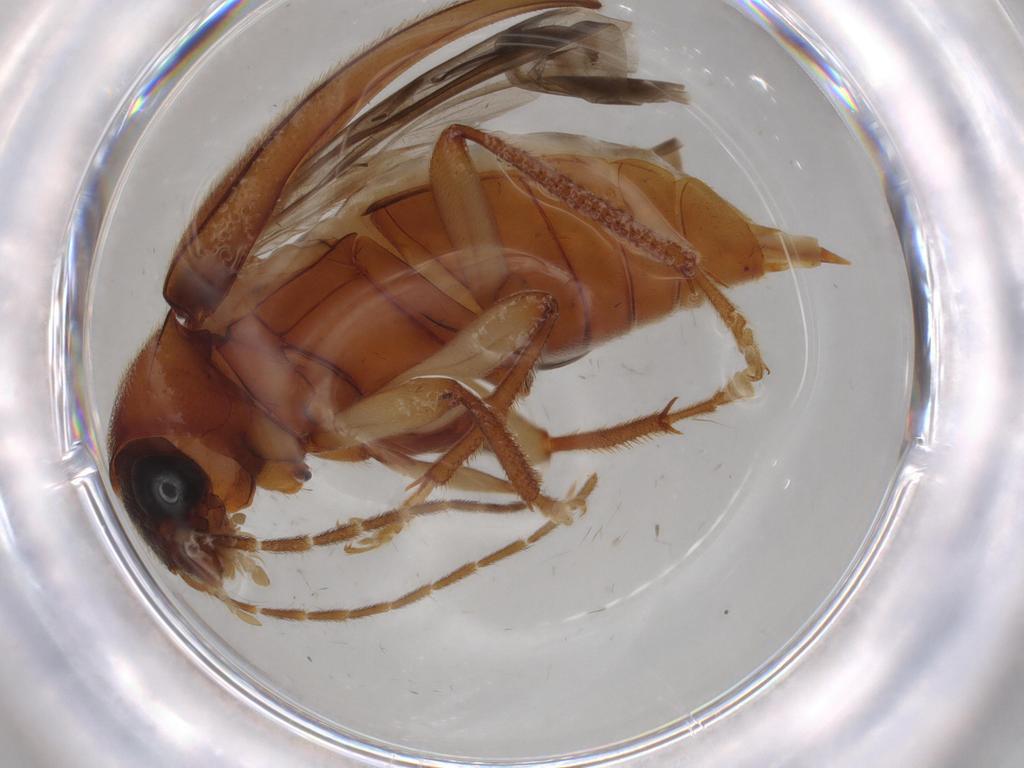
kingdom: Animalia
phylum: Arthropoda
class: Insecta
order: Coleoptera
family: Ptilodactylidae
